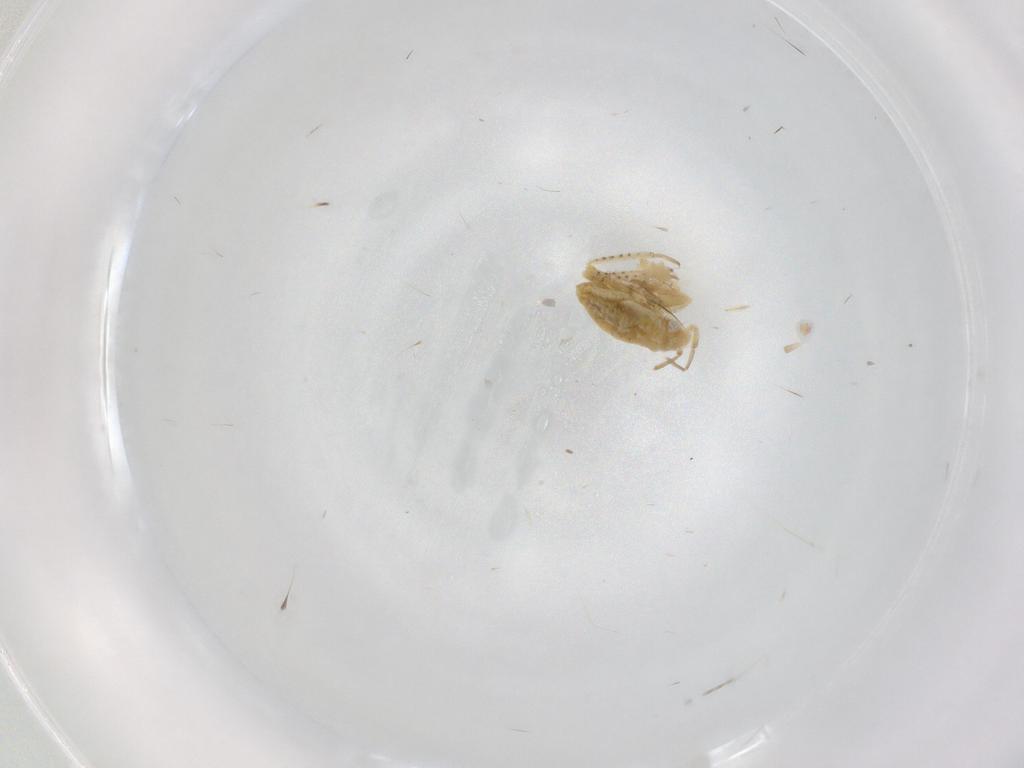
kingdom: Animalia
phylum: Arthropoda
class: Insecta
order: Hemiptera
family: Miridae
